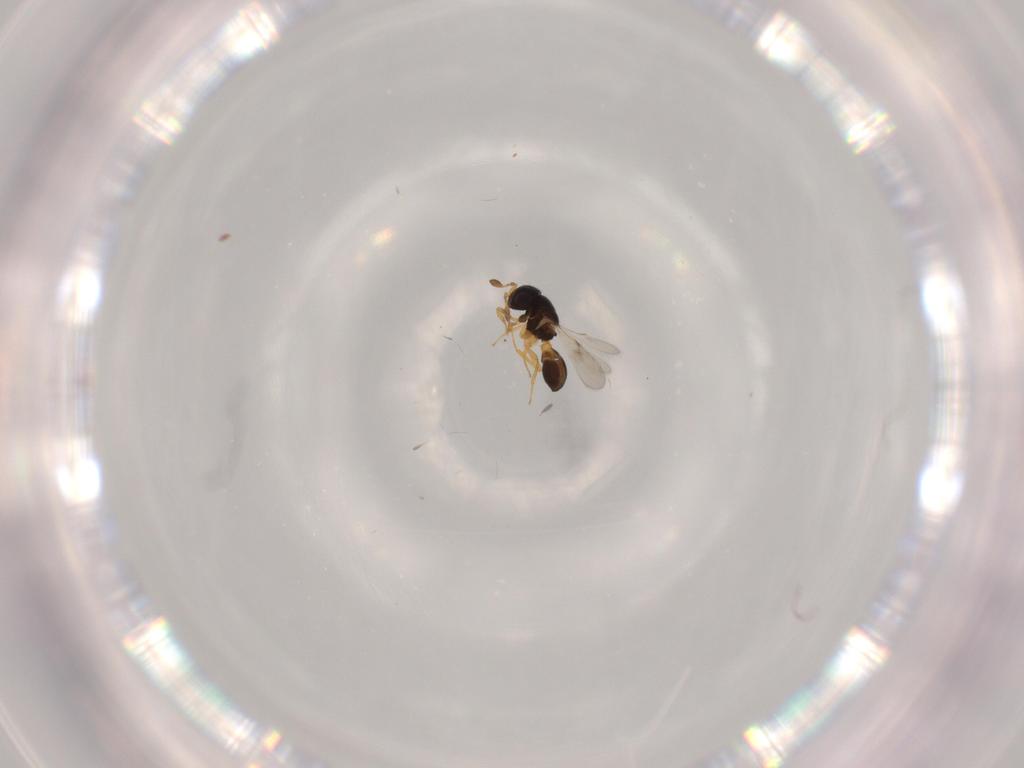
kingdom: Animalia
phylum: Arthropoda
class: Insecta
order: Hymenoptera
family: Scelionidae
